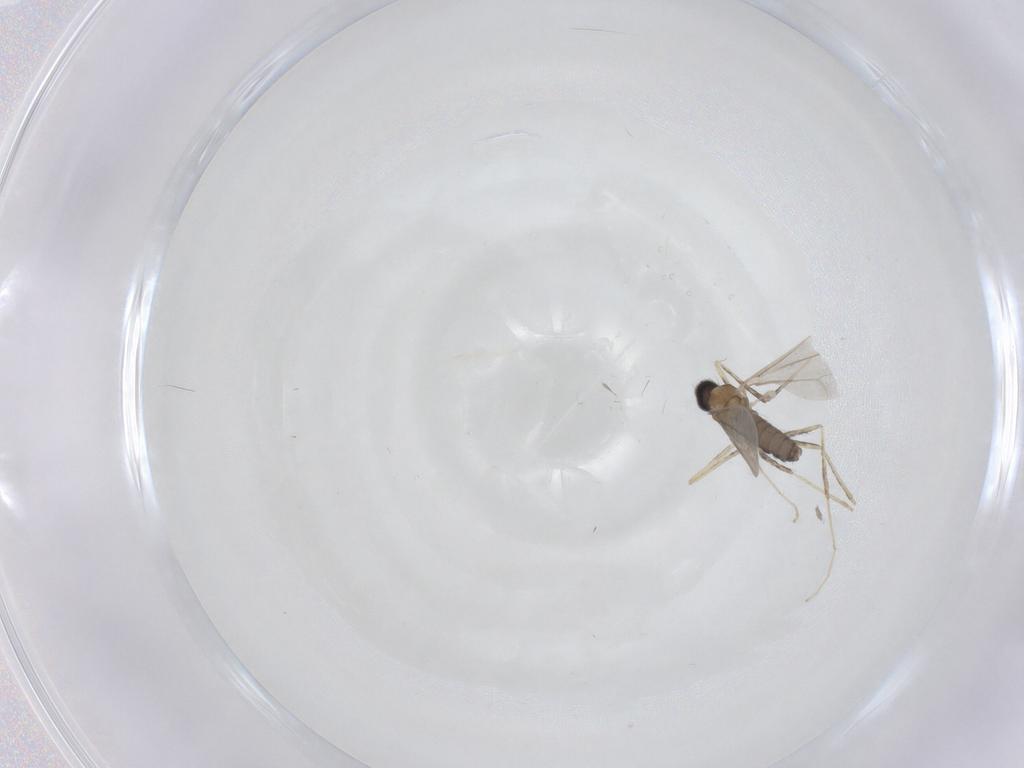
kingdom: Animalia
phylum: Arthropoda
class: Insecta
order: Diptera
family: Cecidomyiidae
